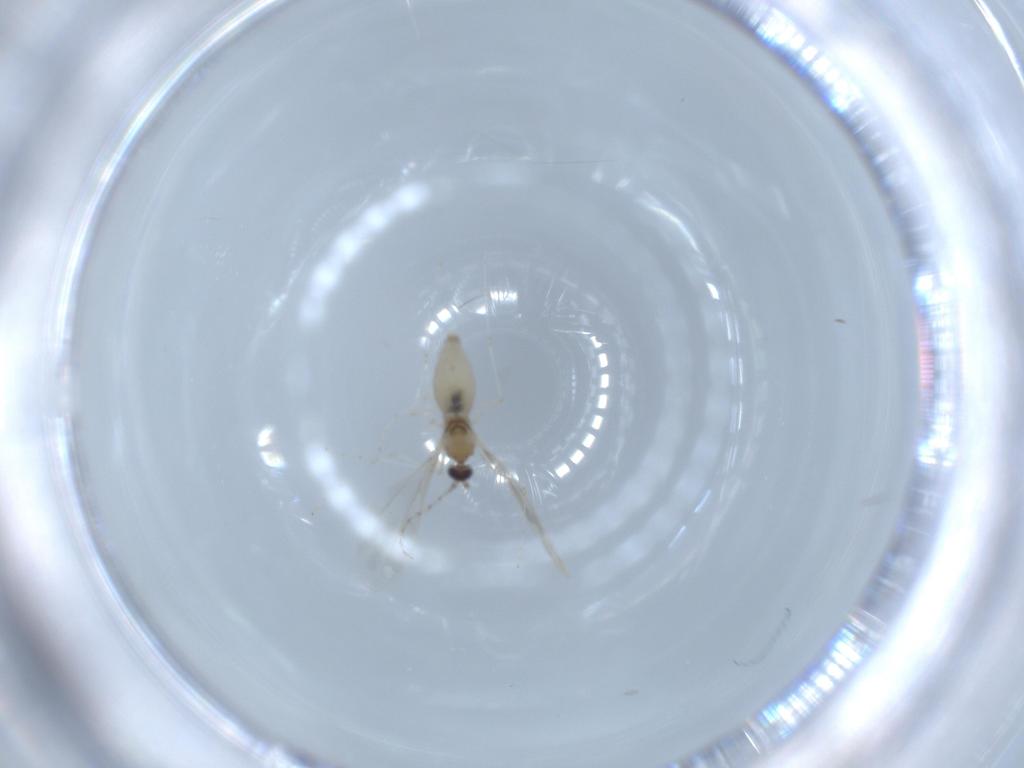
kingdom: Animalia
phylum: Arthropoda
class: Insecta
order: Diptera
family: Cecidomyiidae
